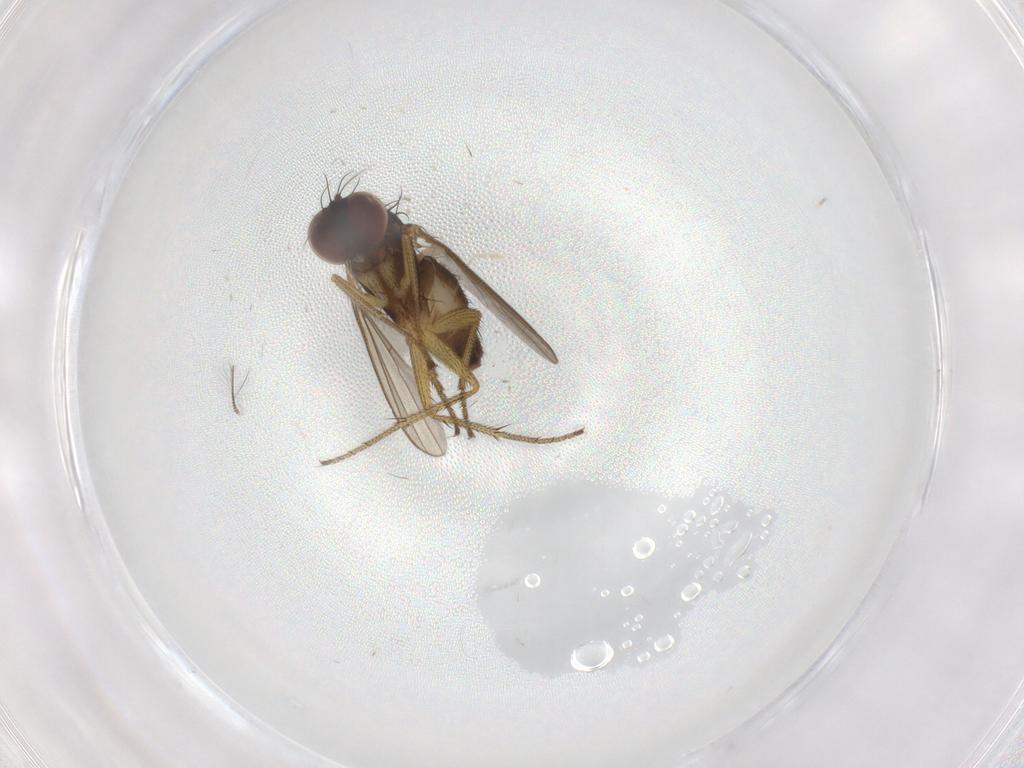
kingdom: Animalia
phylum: Arthropoda
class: Insecta
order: Diptera
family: Dolichopodidae
